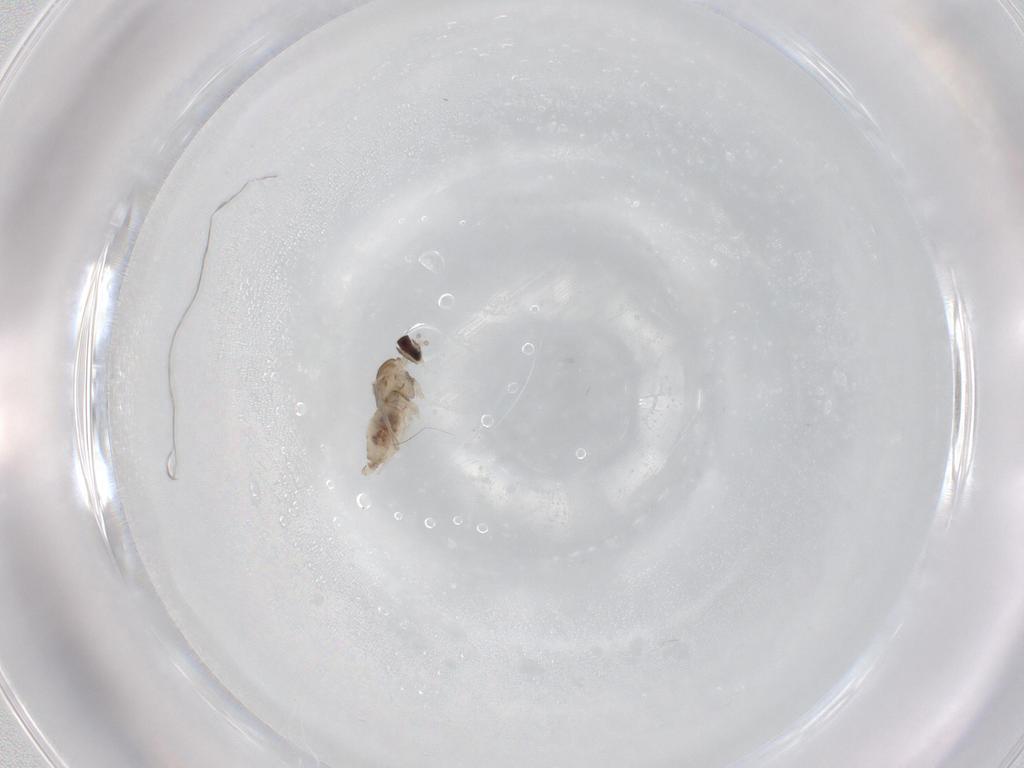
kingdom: Animalia
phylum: Arthropoda
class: Insecta
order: Diptera
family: Cecidomyiidae
